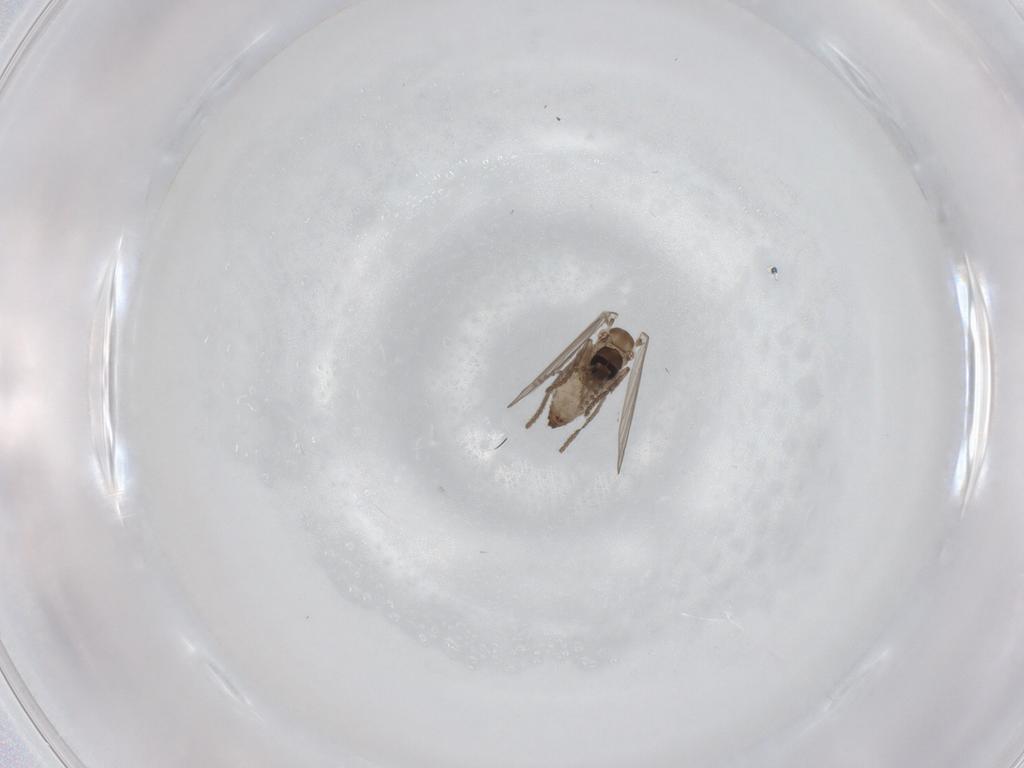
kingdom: Animalia
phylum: Arthropoda
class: Insecta
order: Diptera
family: Psychodidae
